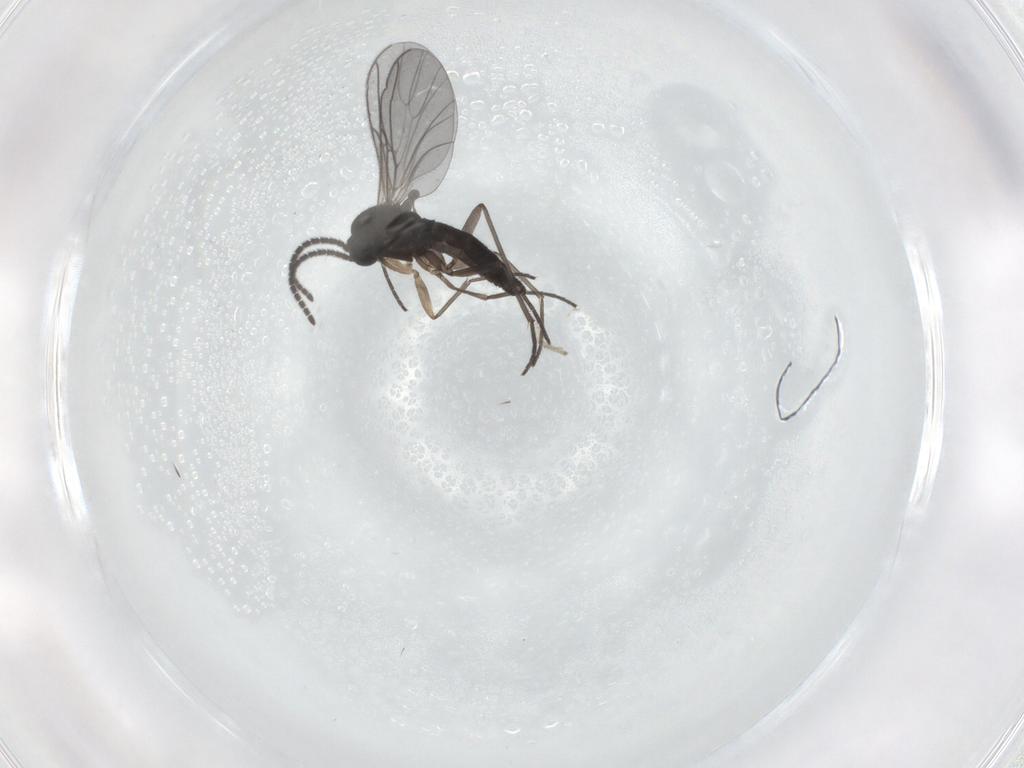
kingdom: Animalia
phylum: Arthropoda
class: Insecta
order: Diptera
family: Sciaridae
